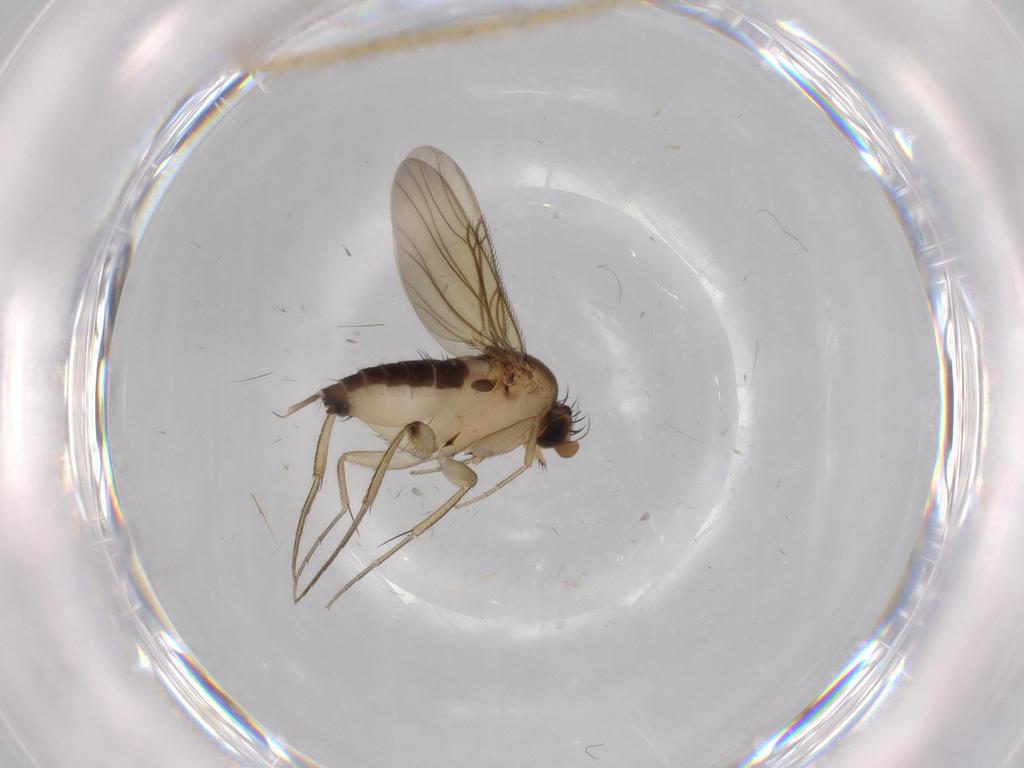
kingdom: Animalia
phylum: Arthropoda
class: Insecta
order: Diptera
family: Phoridae
